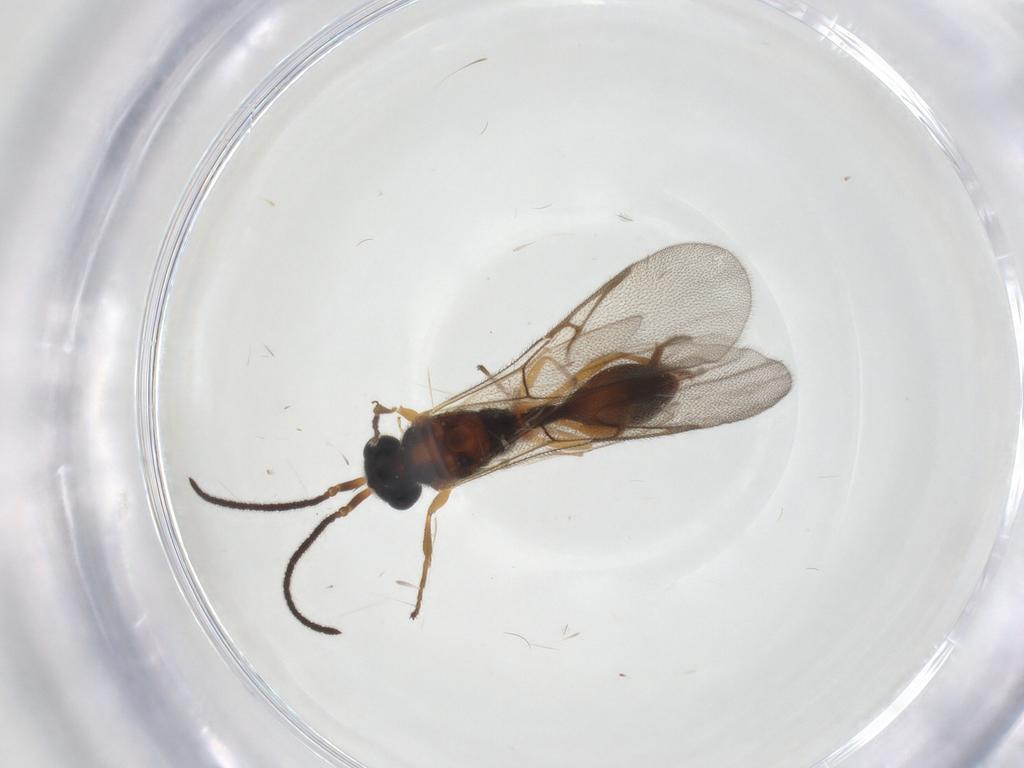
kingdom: Animalia
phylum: Arthropoda
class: Insecta
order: Hymenoptera
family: Diapriidae
